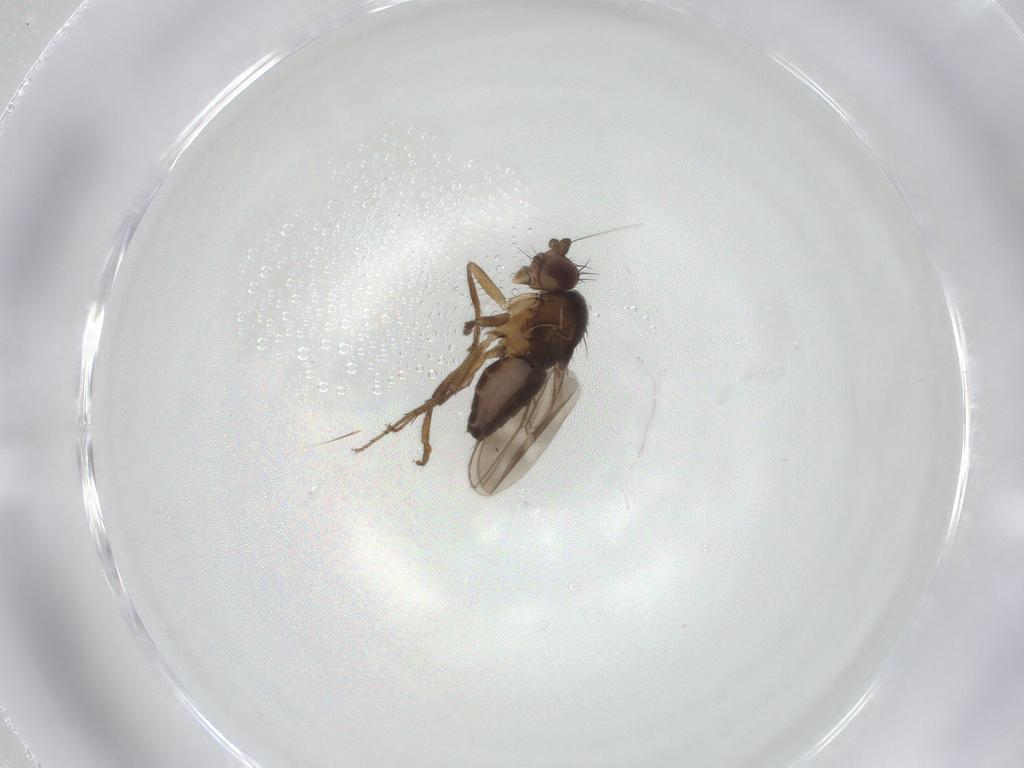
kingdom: Animalia
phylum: Arthropoda
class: Insecta
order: Diptera
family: Sphaeroceridae
